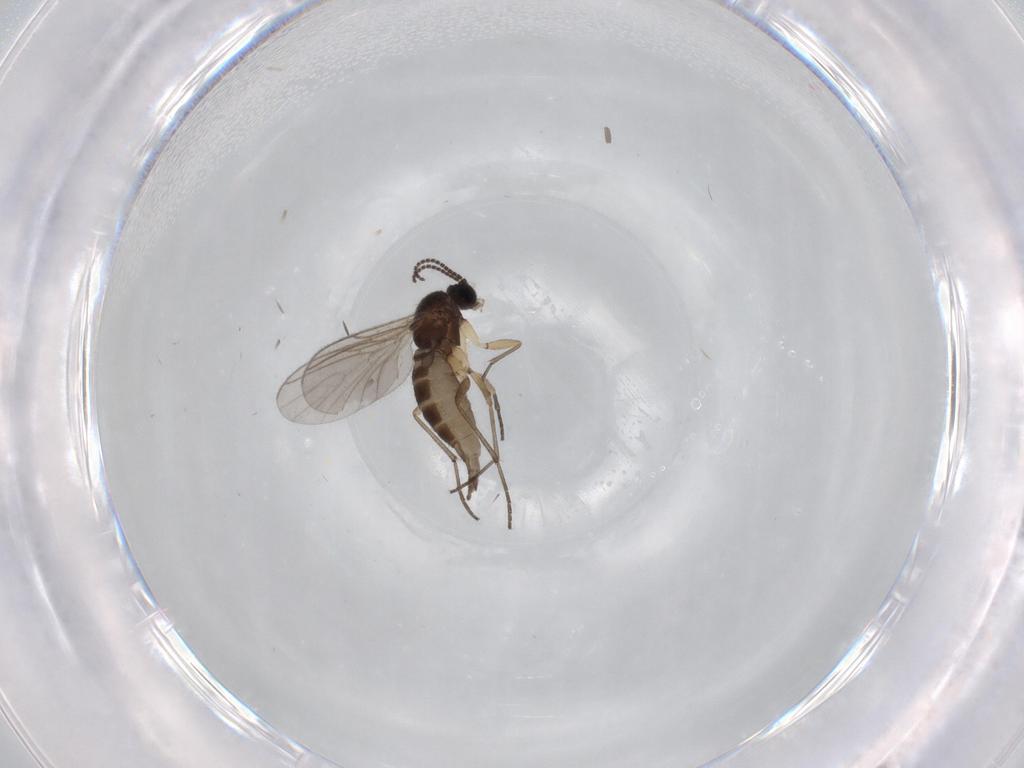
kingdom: Animalia
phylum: Arthropoda
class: Insecta
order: Diptera
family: Sciaridae
